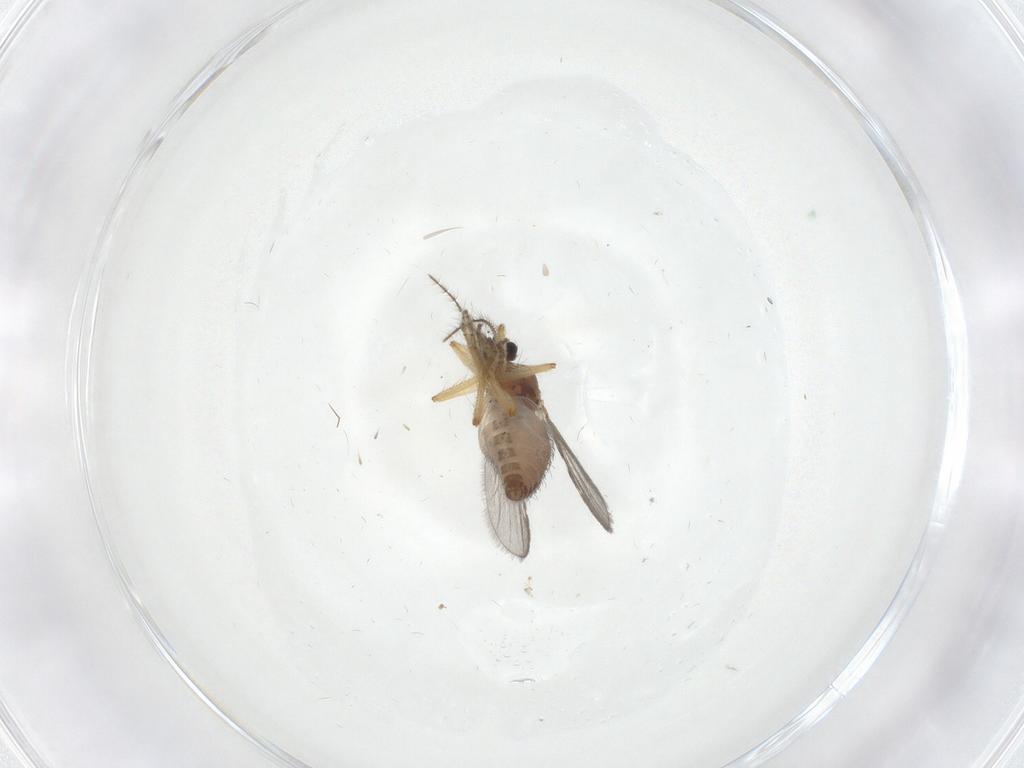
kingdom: Animalia
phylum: Arthropoda
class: Insecta
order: Diptera
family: Ceratopogonidae
